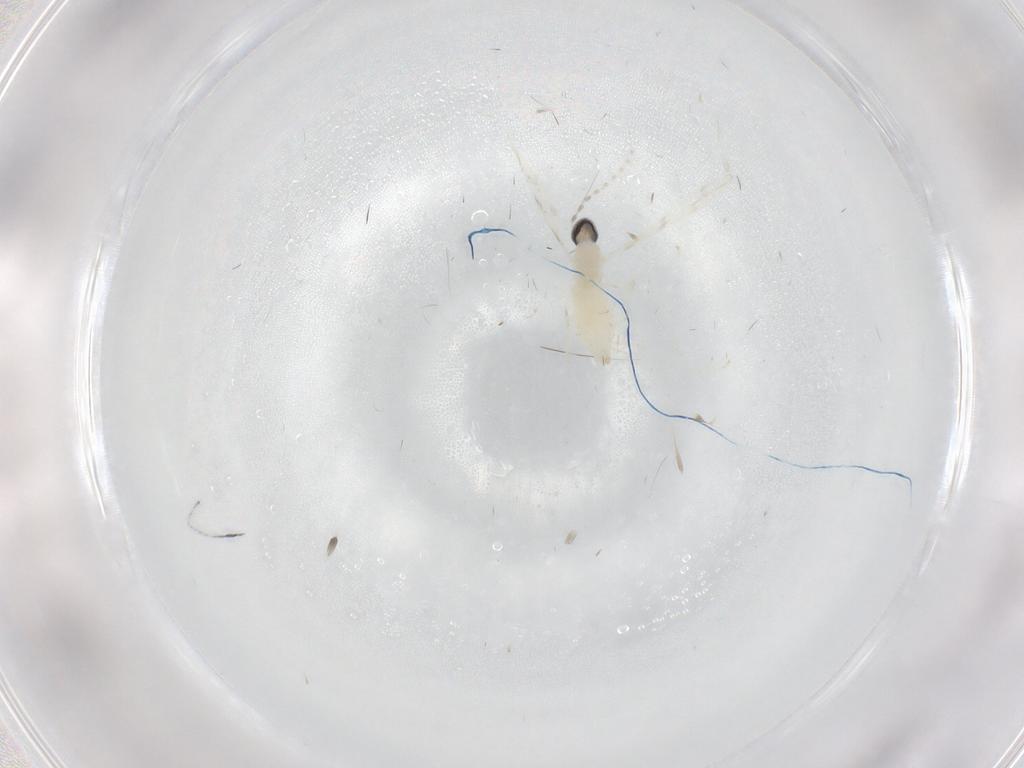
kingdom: Animalia
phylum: Arthropoda
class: Insecta
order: Diptera
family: Cecidomyiidae
